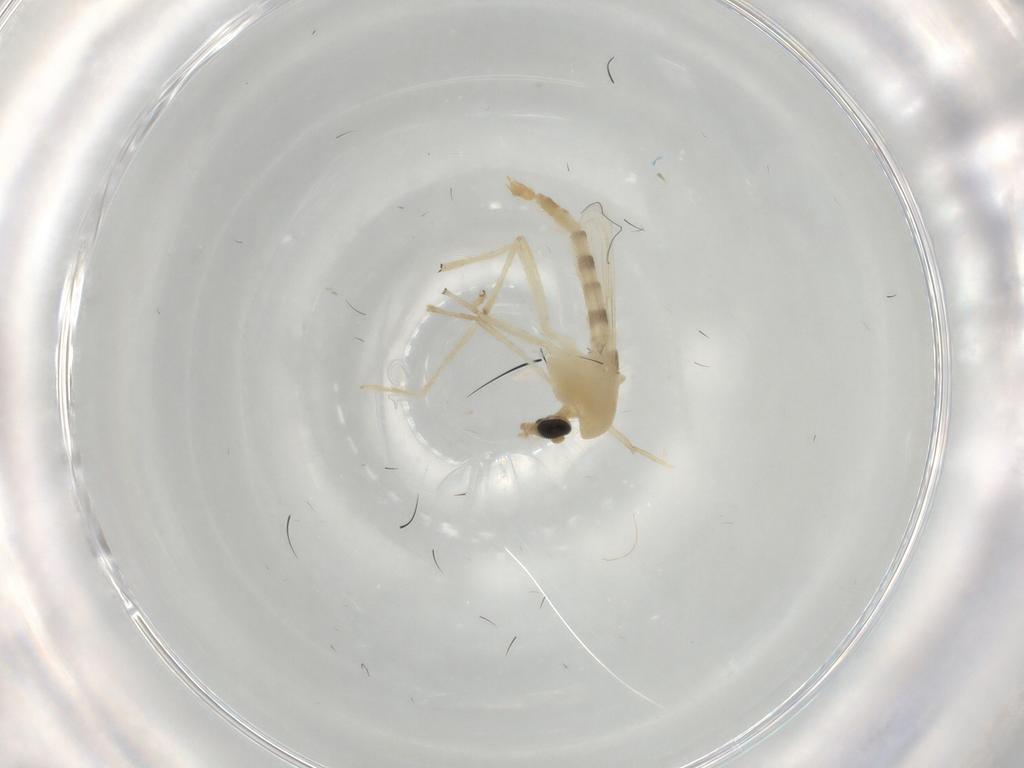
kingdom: Animalia
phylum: Arthropoda
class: Insecta
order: Diptera
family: Chironomidae
